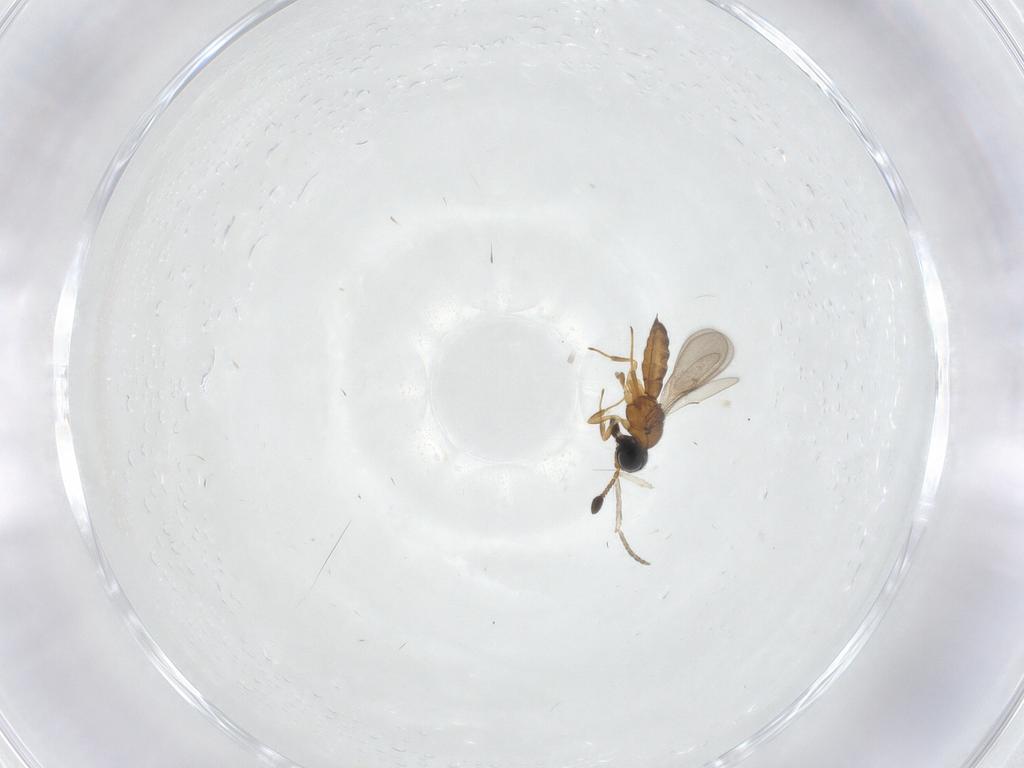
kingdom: Animalia
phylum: Arthropoda
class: Insecta
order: Hymenoptera
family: Scelionidae
